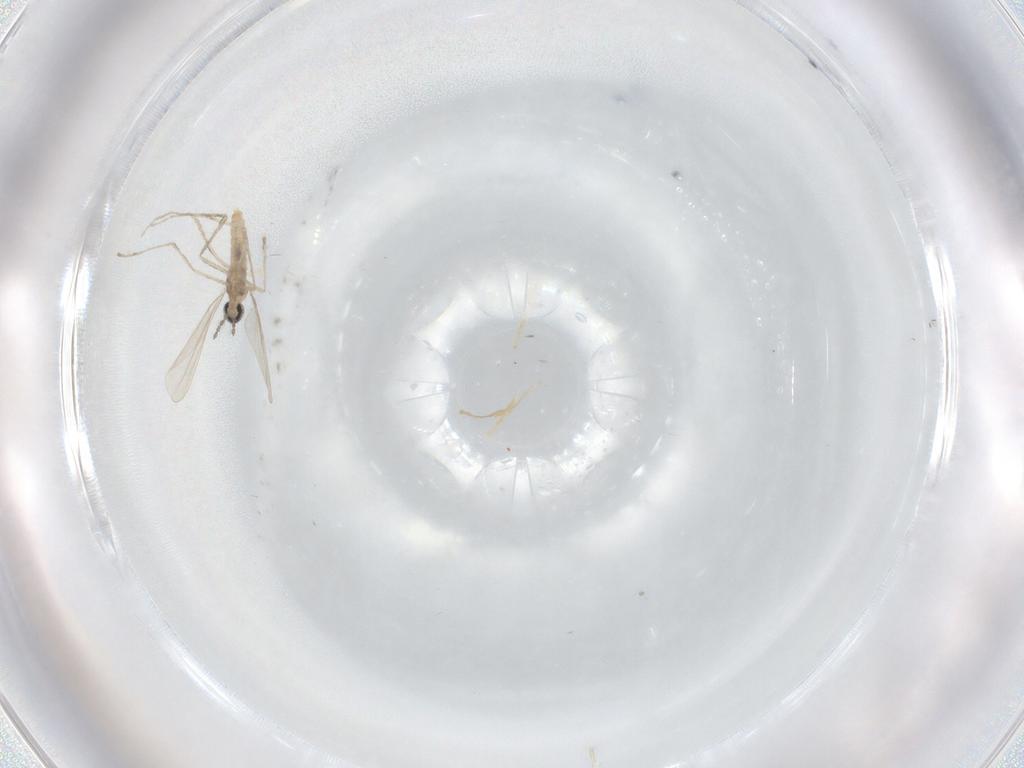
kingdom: Animalia
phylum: Arthropoda
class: Insecta
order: Diptera
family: Cecidomyiidae
